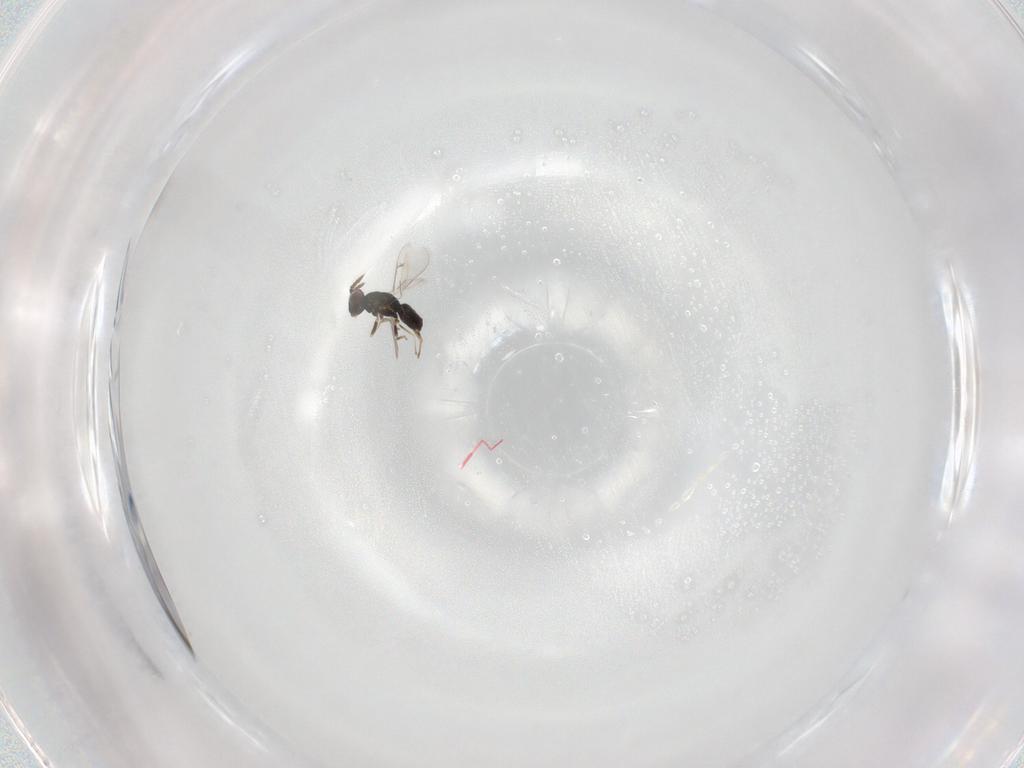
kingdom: Animalia
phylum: Arthropoda
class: Insecta
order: Hymenoptera
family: Eulophidae
